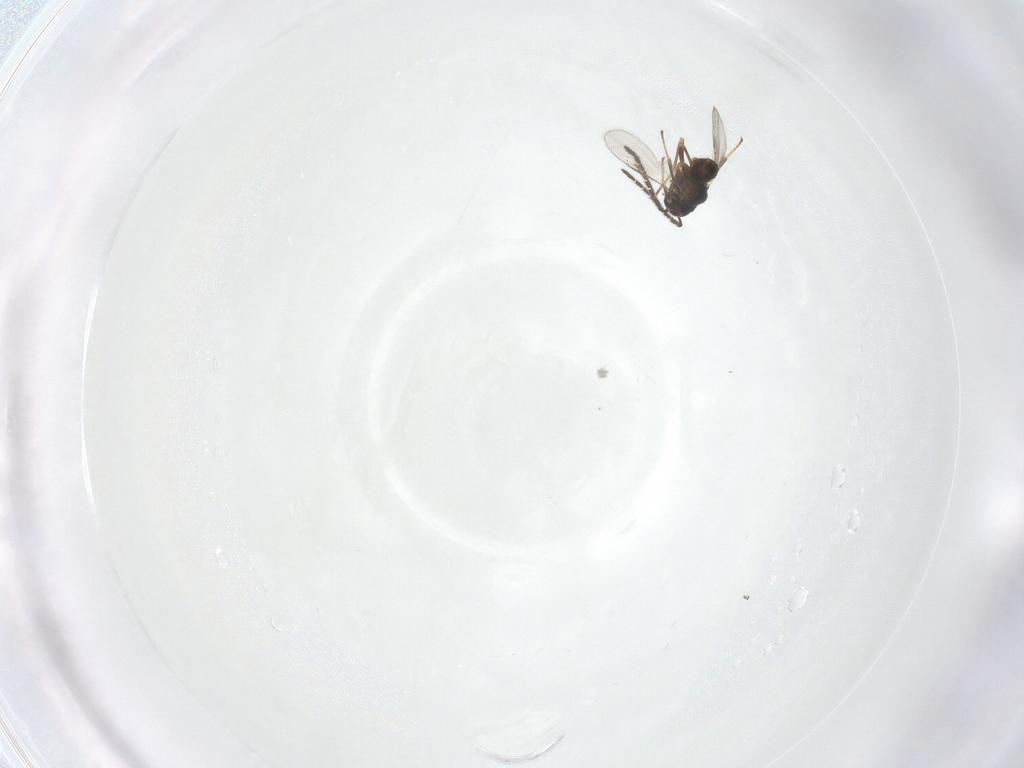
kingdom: Animalia
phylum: Arthropoda
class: Insecta
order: Hymenoptera
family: Encyrtidae
